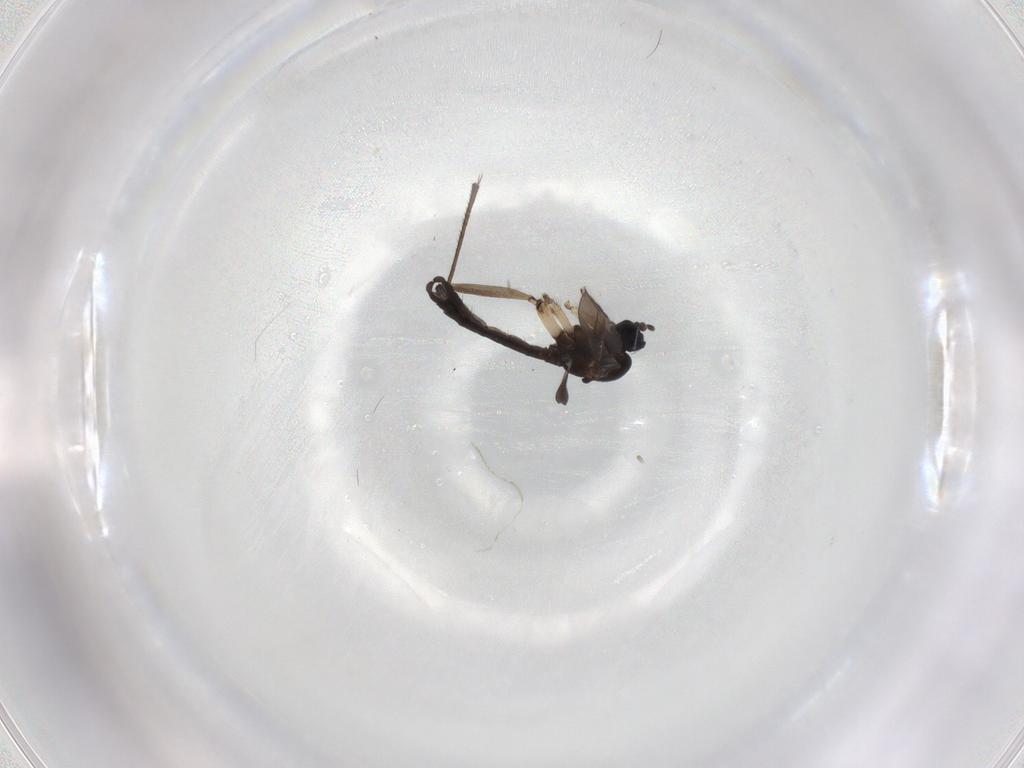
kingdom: Animalia
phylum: Arthropoda
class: Insecta
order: Diptera
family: Sciaridae
